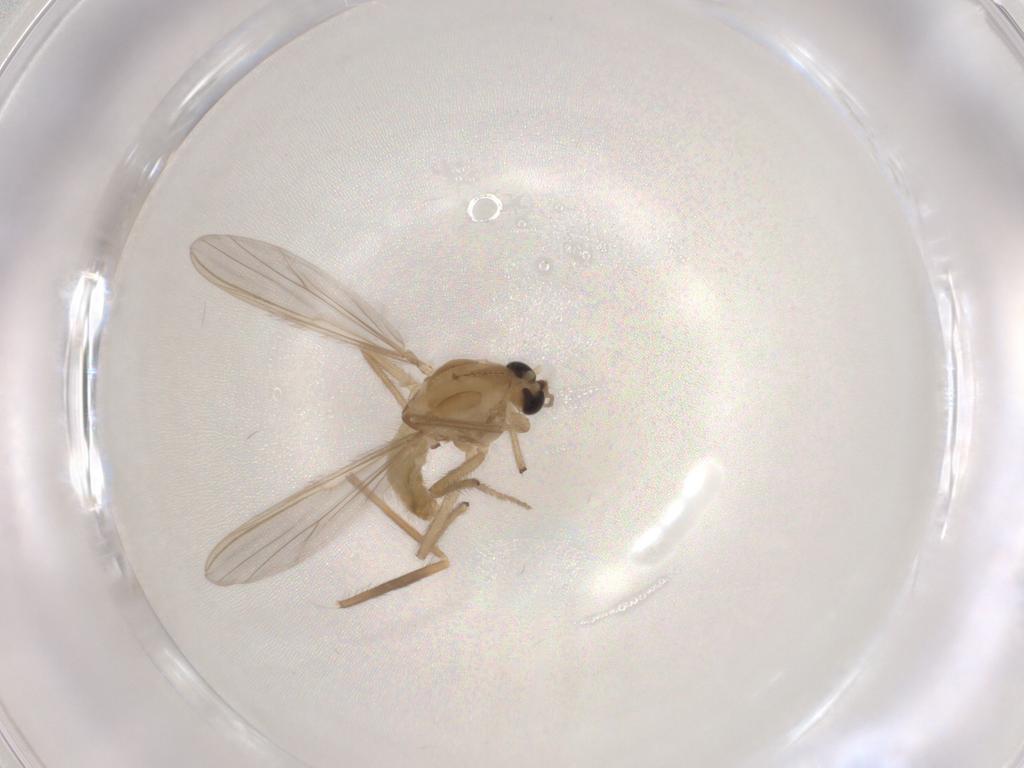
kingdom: Animalia
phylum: Arthropoda
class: Insecta
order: Diptera
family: Chironomidae
